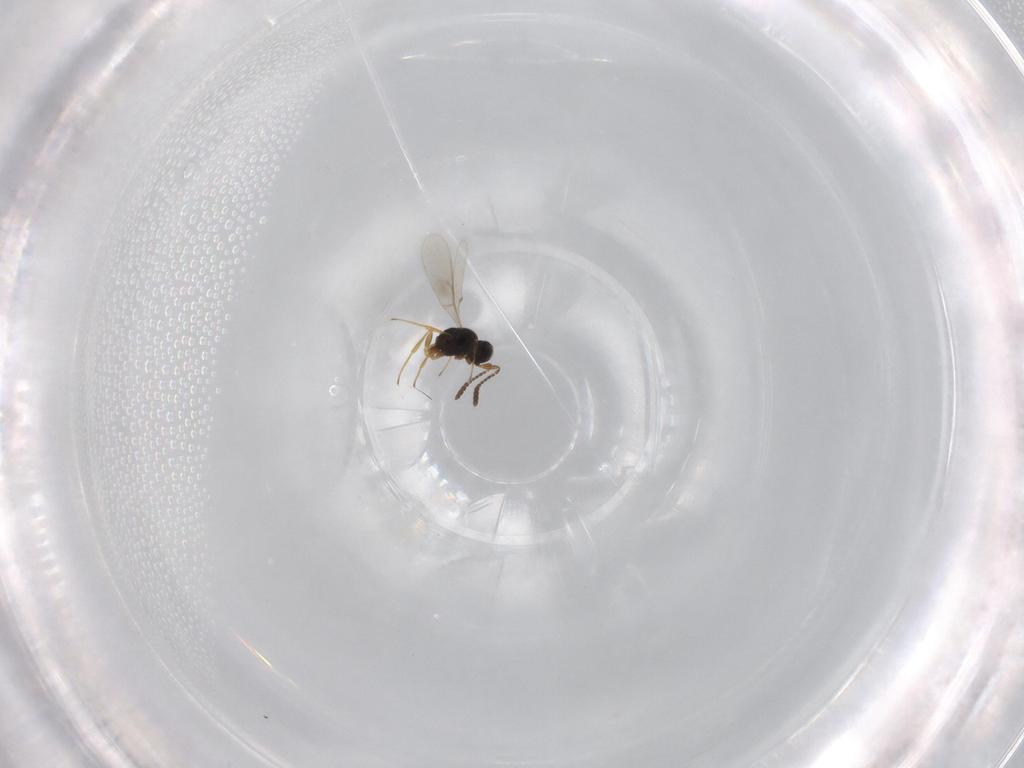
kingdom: Animalia
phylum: Arthropoda
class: Insecta
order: Hymenoptera
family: Scelionidae
